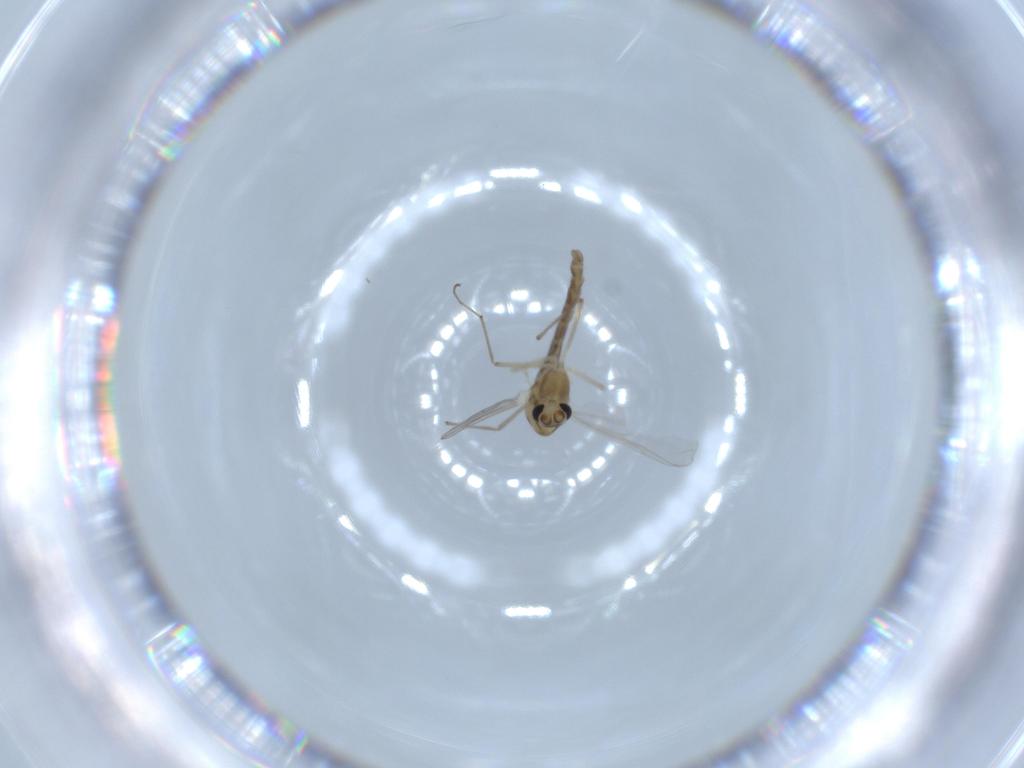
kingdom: Animalia
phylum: Arthropoda
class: Insecta
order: Diptera
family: Chironomidae
